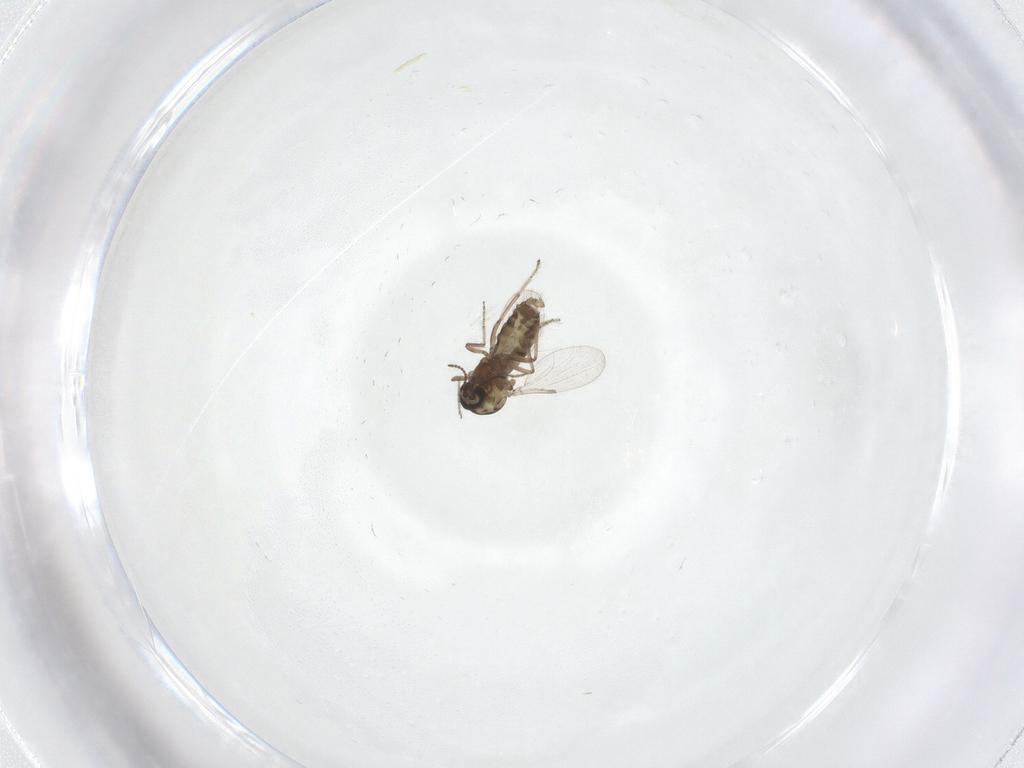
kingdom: Animalia
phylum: Arthropoda
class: Insecta
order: Diptera
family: Ceratopogonidae
